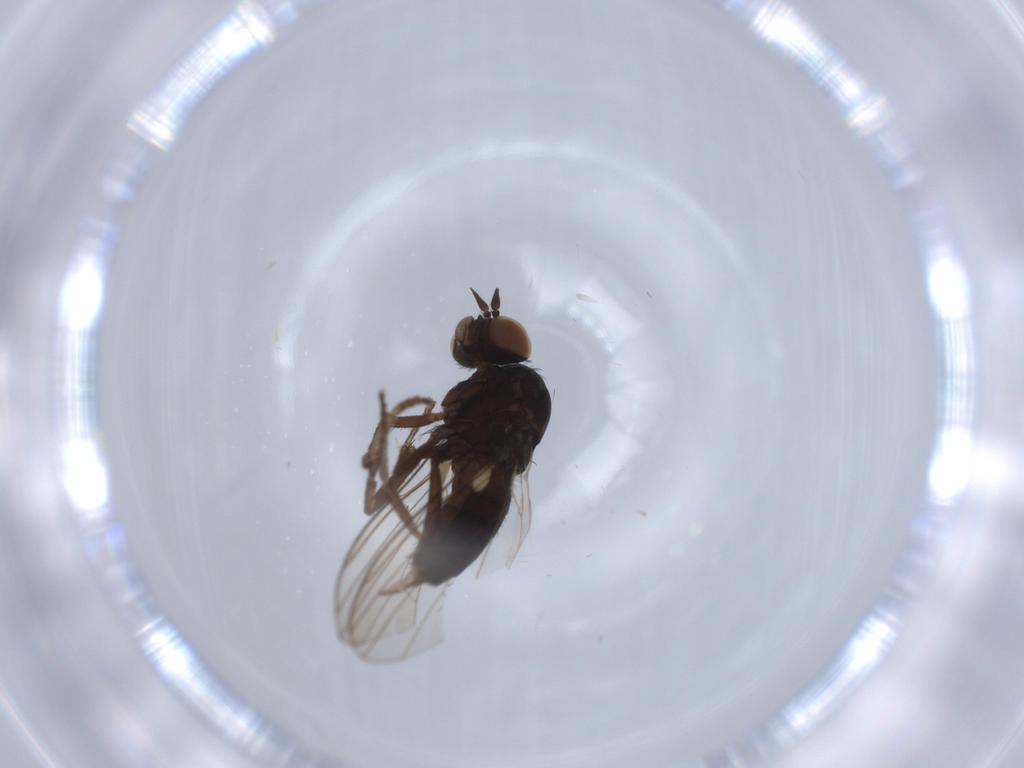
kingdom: Animalia
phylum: Arthropoda
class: Insecta
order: Diptera
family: Platypezidae
